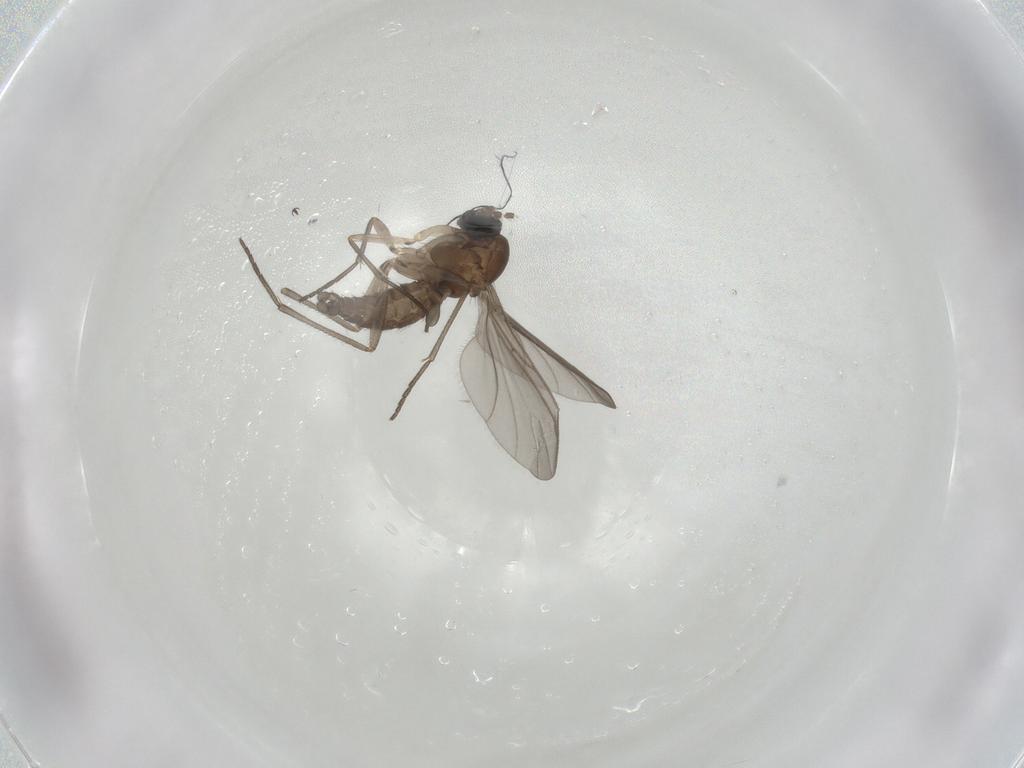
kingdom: Animalia
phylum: Arthropoda
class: Insecta
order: Diptera
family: Sciaridae
